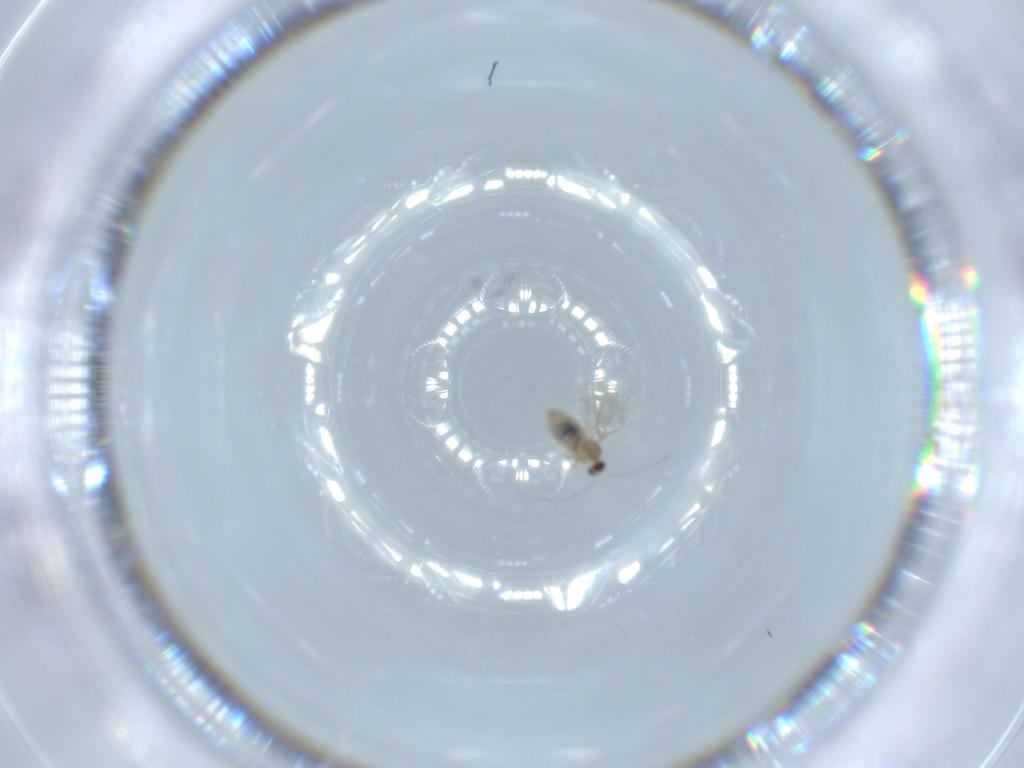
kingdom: Animalia
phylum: Arthropoda
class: Insecta
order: Diptera
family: Chironomidae
